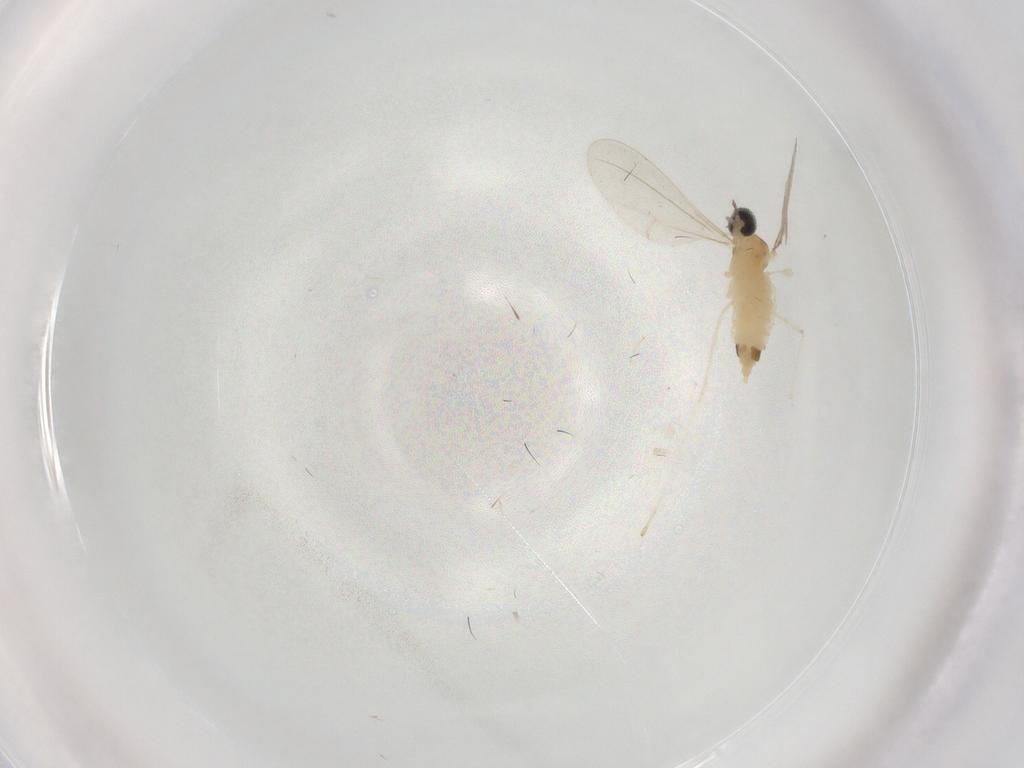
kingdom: Animalia
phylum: Arthropoda
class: Insecta
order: Diptera
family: Cecidomyiidae
